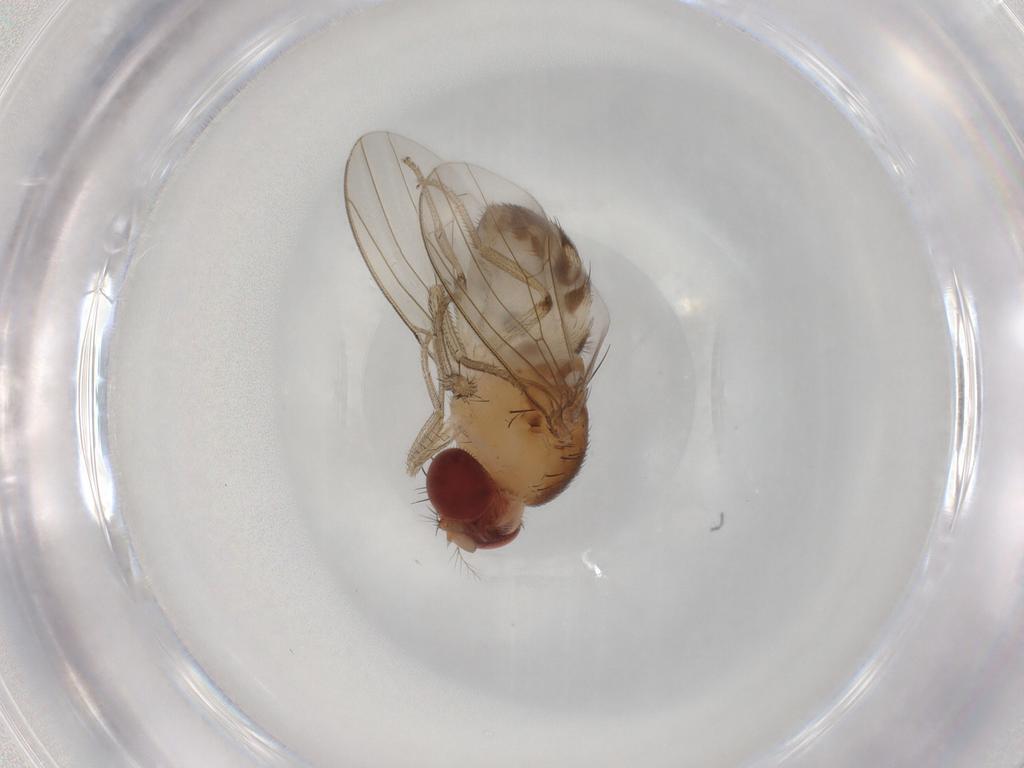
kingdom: Animalia
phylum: Arthropoda
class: Insecta
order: Diptera
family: Drosophilidae
